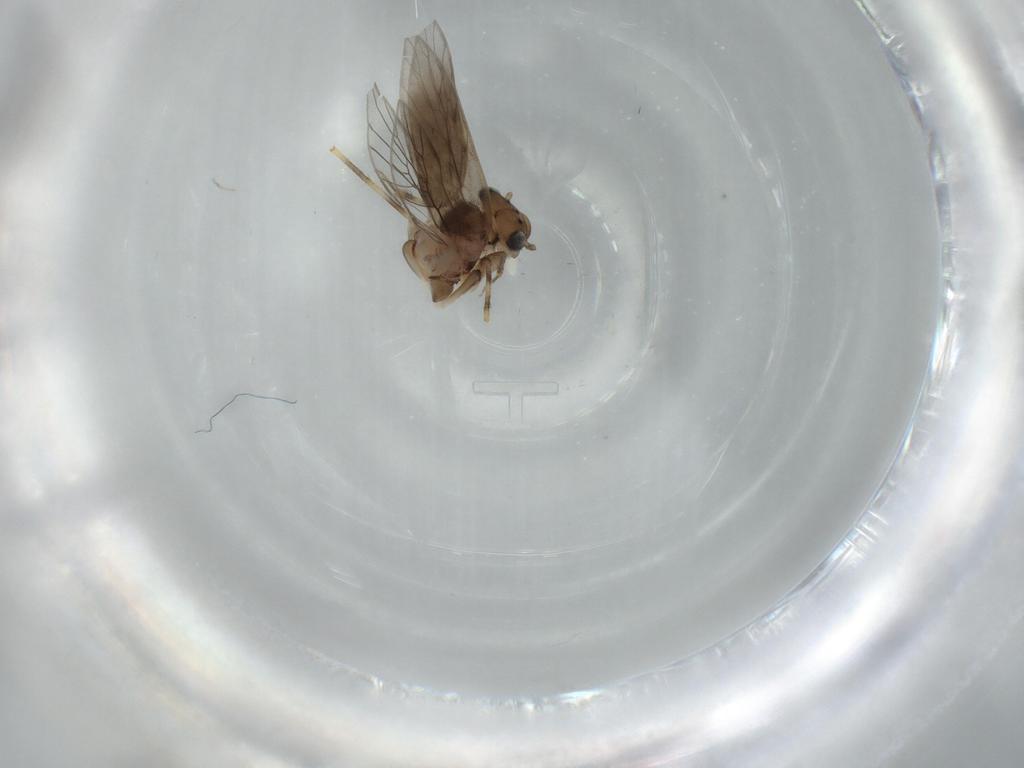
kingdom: Animalia
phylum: Arthropoda
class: Insecta
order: Psocodea
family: Lepidopsocidae
